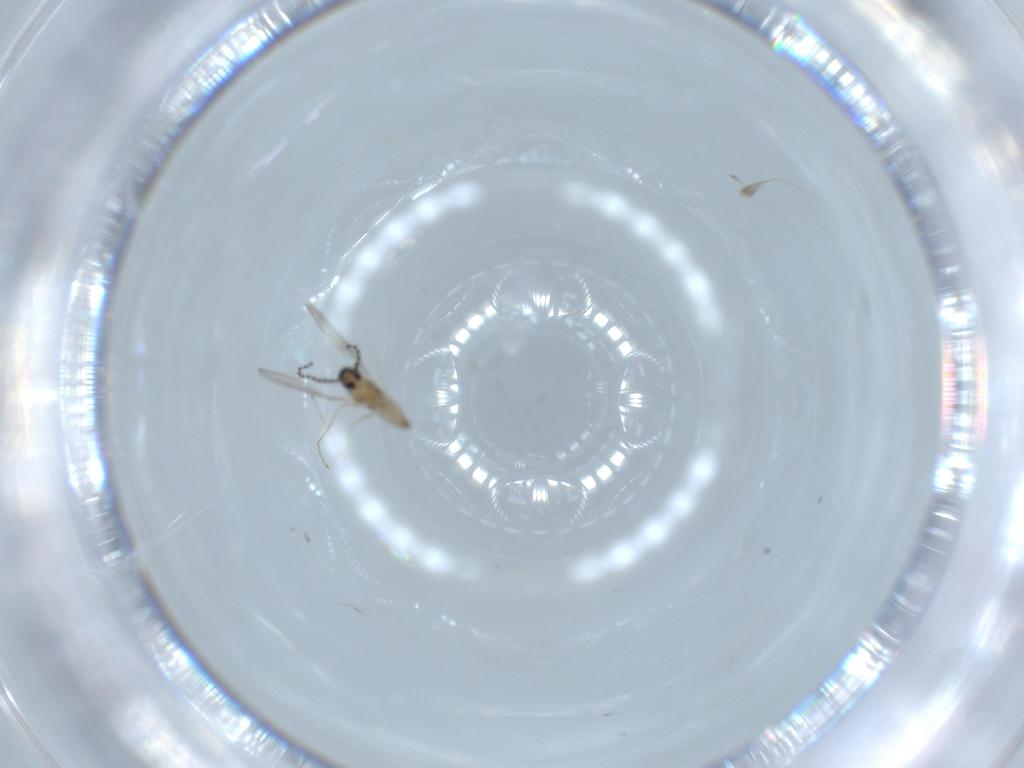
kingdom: Animalia
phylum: Arthropoda
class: Insecta
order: Diptera
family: Cecidomyiidae
